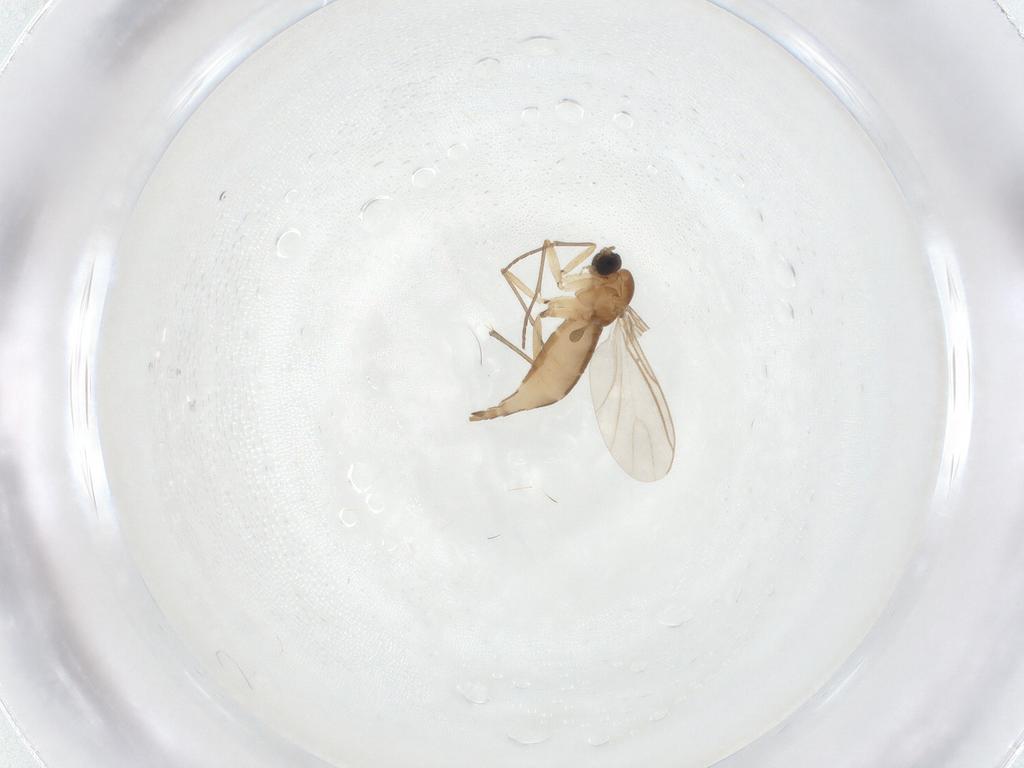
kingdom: Animalia
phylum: Arthropoda
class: Insecta
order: Diptera
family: Sciaridae
